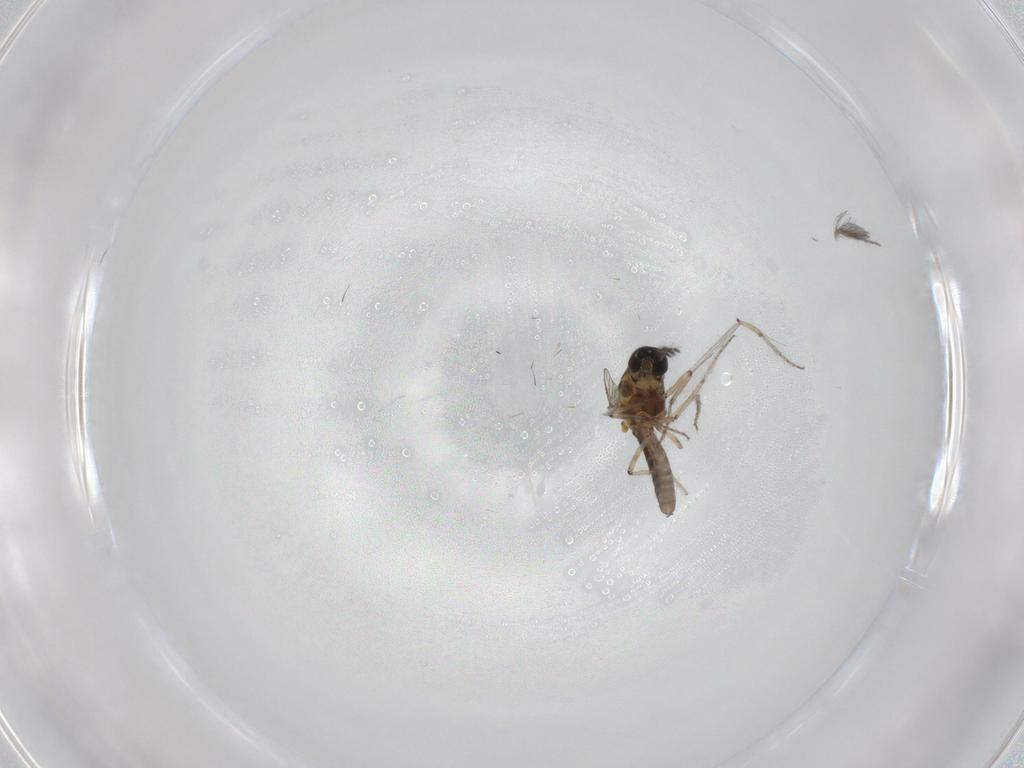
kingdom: Animalia
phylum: Arthropoda
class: Insecta
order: Diptera
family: Ceratopogonidae
